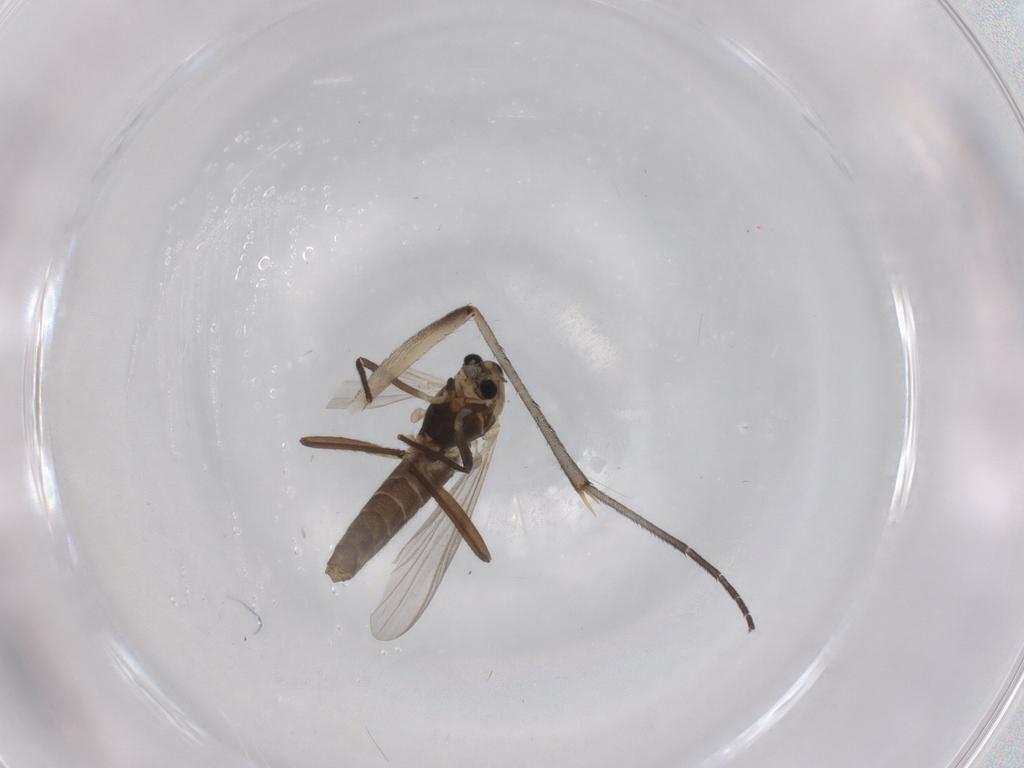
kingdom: Animalia
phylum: Arthropoda
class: Insecta
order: Diptera
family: Chironomidae
